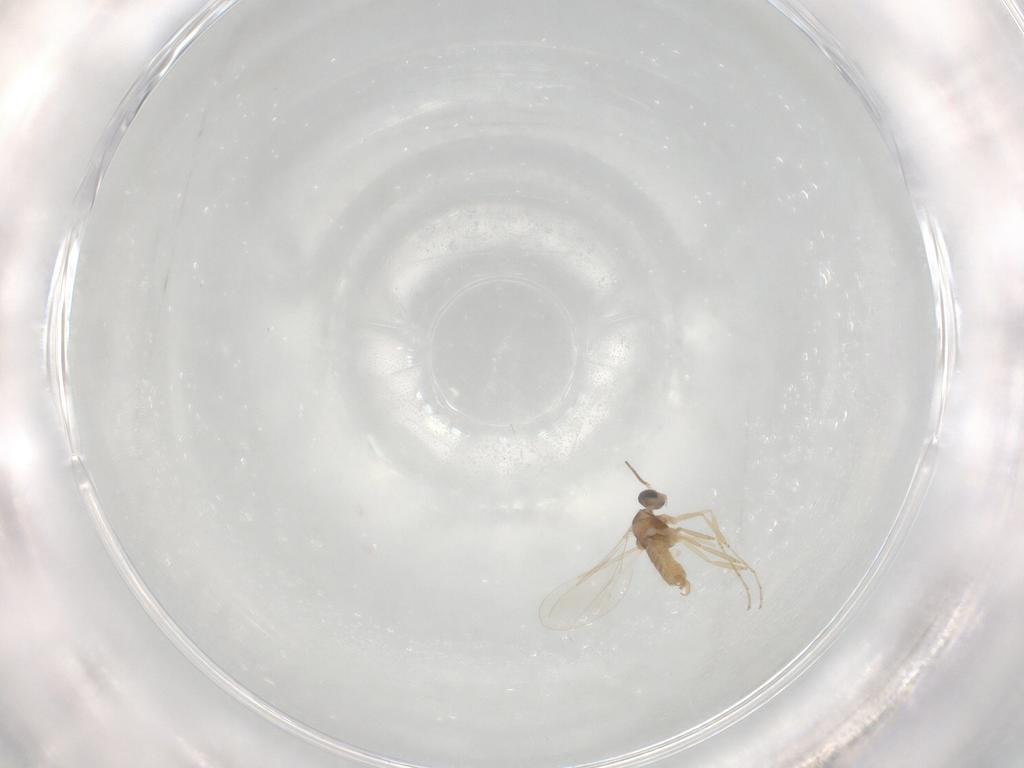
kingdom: Animalia
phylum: Arthropoda
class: Insecta
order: Diptera
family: Cecidomyiidae
